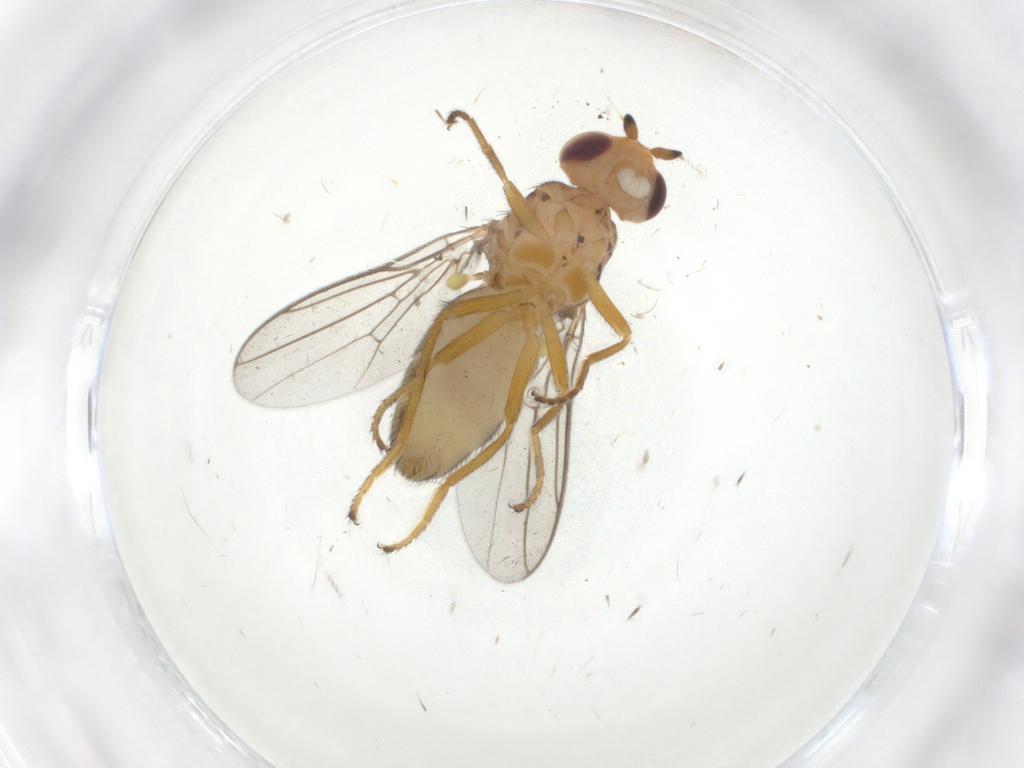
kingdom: Animalia
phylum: Arthropoda
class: Insecta
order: Diptera
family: Chloropidae
